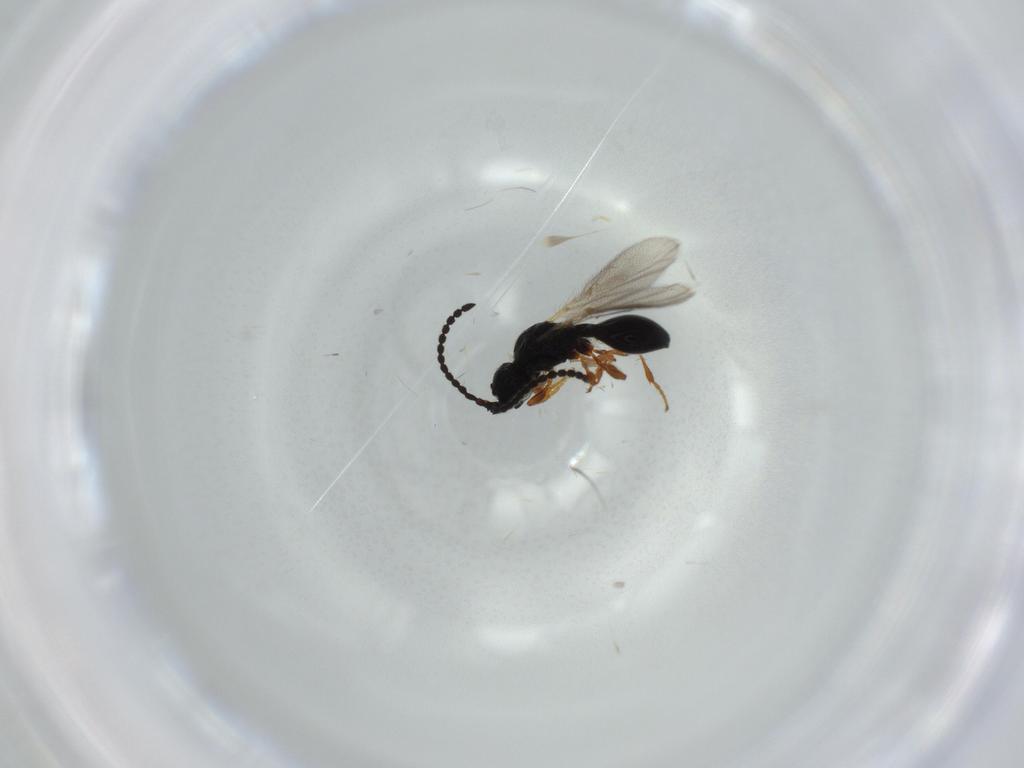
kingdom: Animalia
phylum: Arthropoda
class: Insecta
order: Hymenoptera
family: Diapriidae
